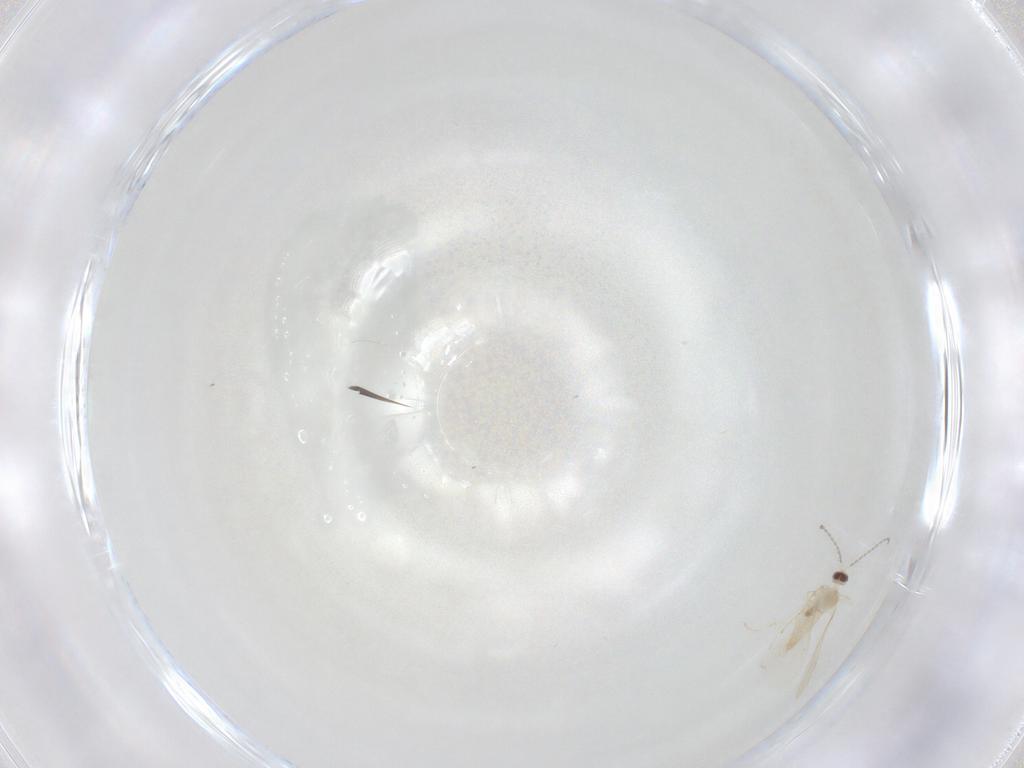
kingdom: Animalia
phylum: Arthropoda
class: Insecta
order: Diptera
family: Cecidomyiidae
